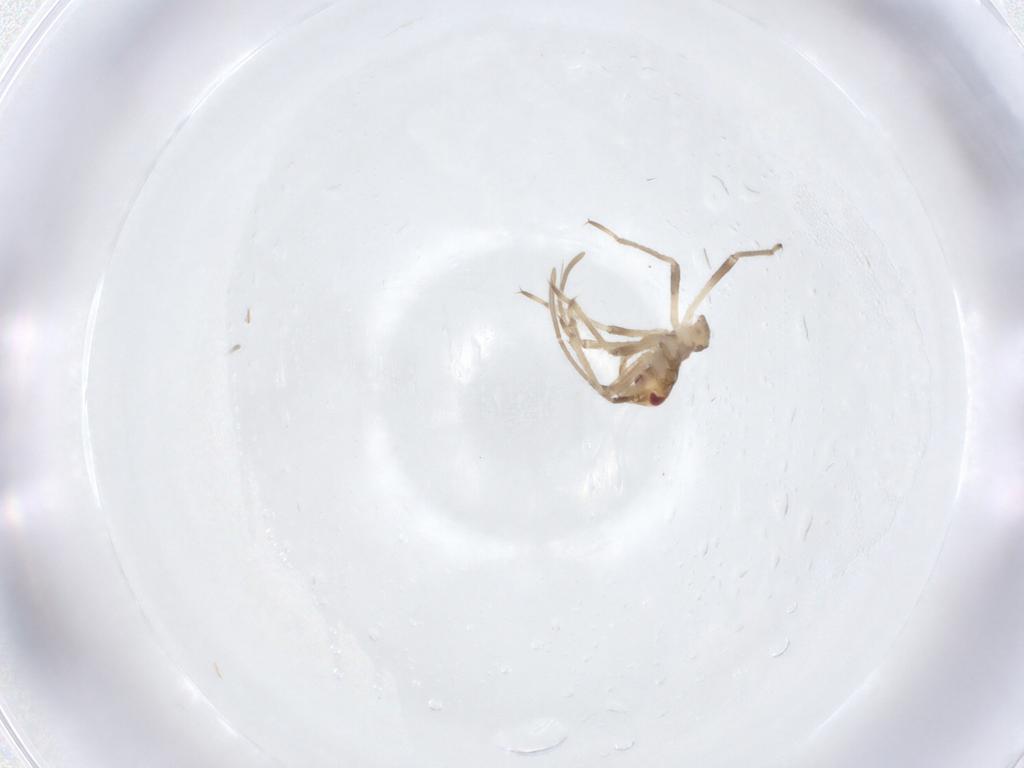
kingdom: Animalia
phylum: Arthropoda
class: Insecta
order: Hemiptera
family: Nabidae
